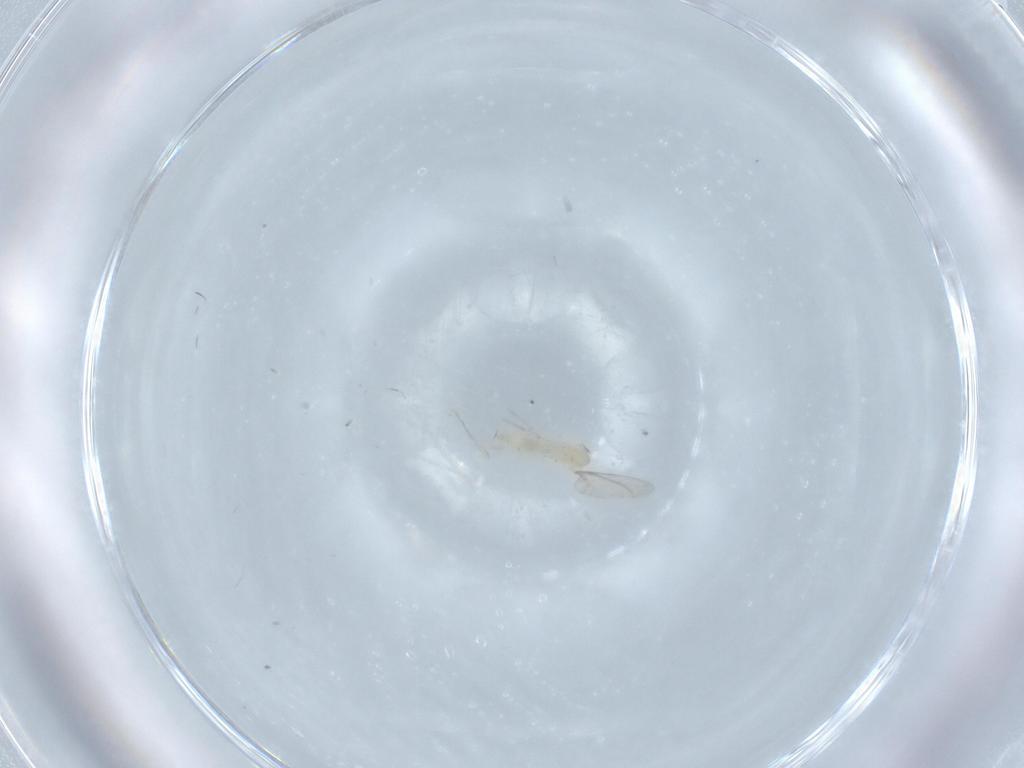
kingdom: Animalia
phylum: Arthropoda
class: Insecta
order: Diptera
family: Cecidomyiidae
